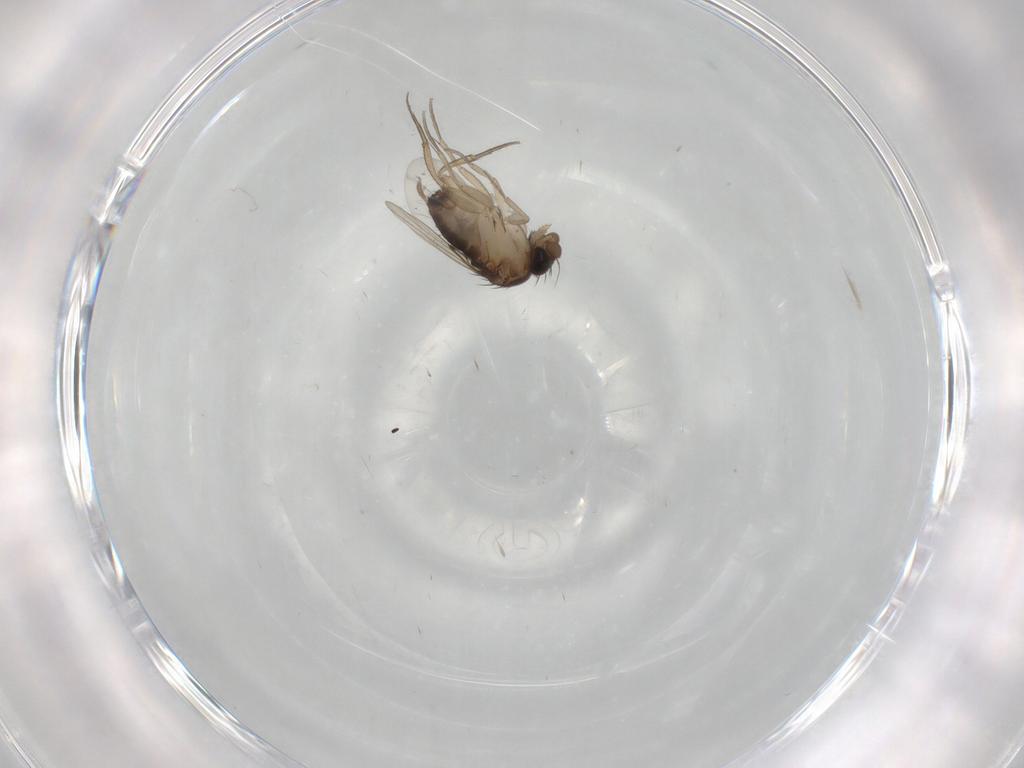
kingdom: Animalia
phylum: Arthropoda
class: Insecta
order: Diptera
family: Sciaridae
